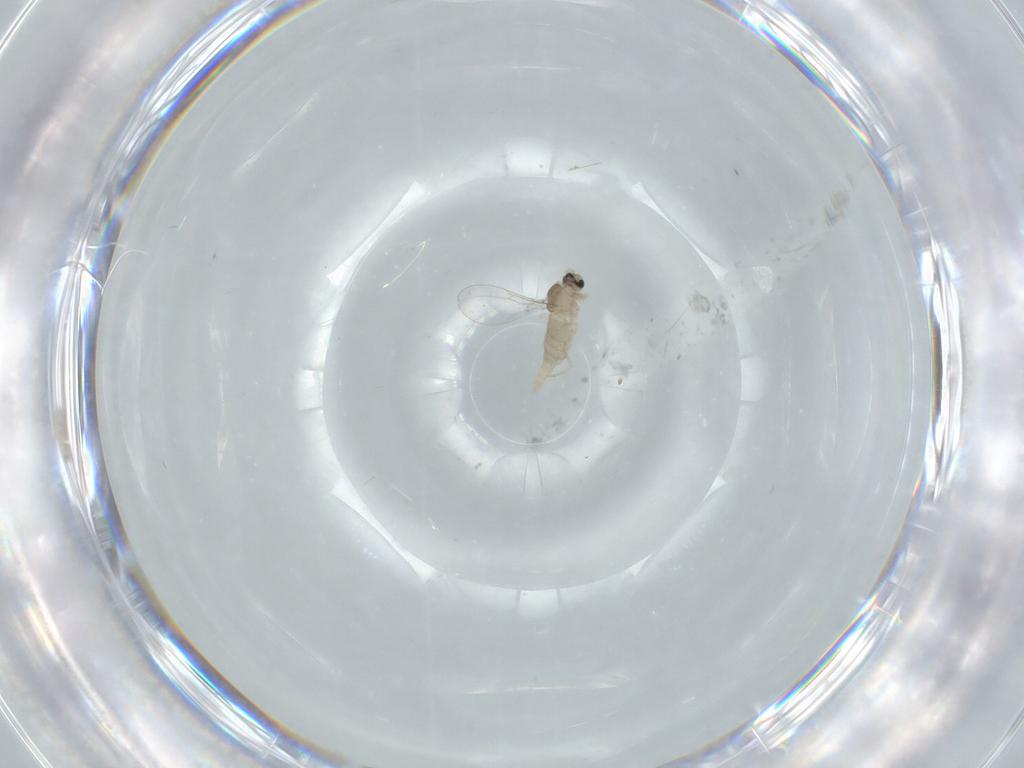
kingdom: Animalia
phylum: Arthropoda
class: Insecta
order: Diptera
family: Cecidomyiidae
